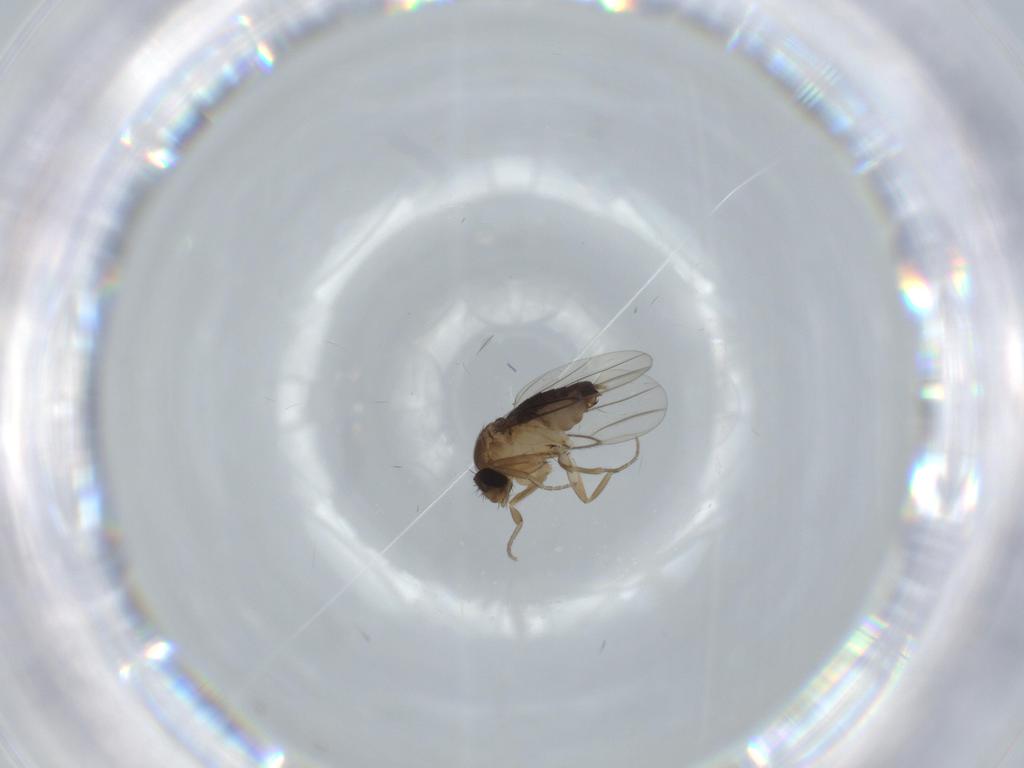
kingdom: Animalia
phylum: Arthropoda
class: Insecta
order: Diptera
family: Phoridae
